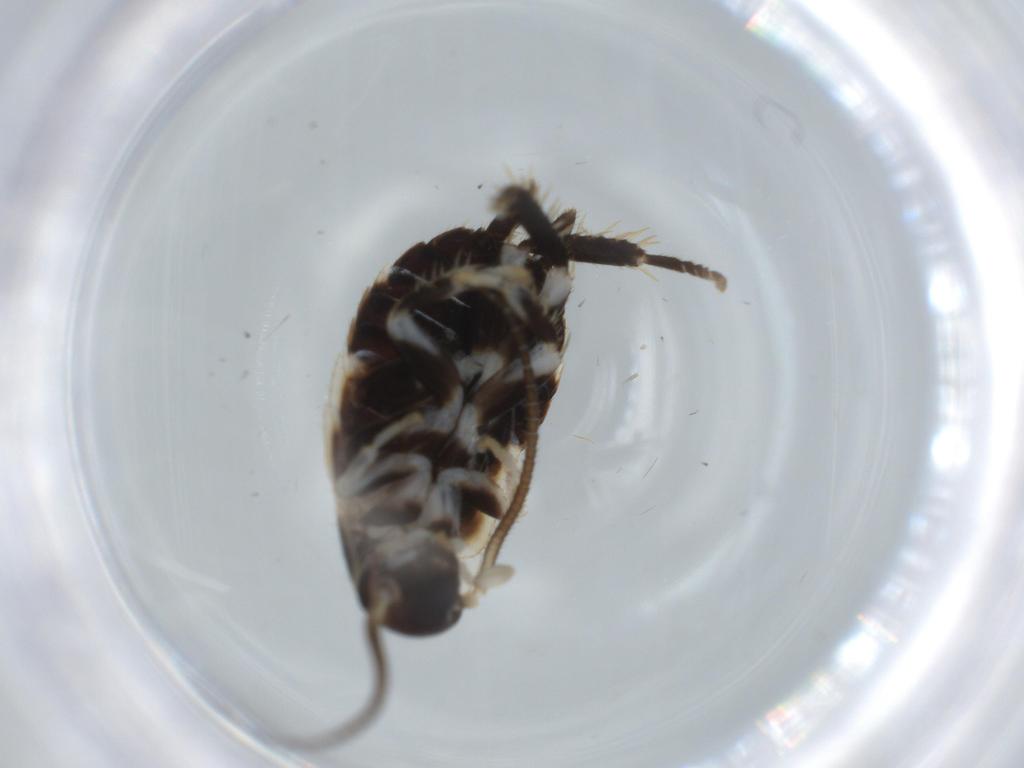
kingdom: Animalia
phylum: Arthropoda
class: Insecta
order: Blattodea
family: Ectobiidae
